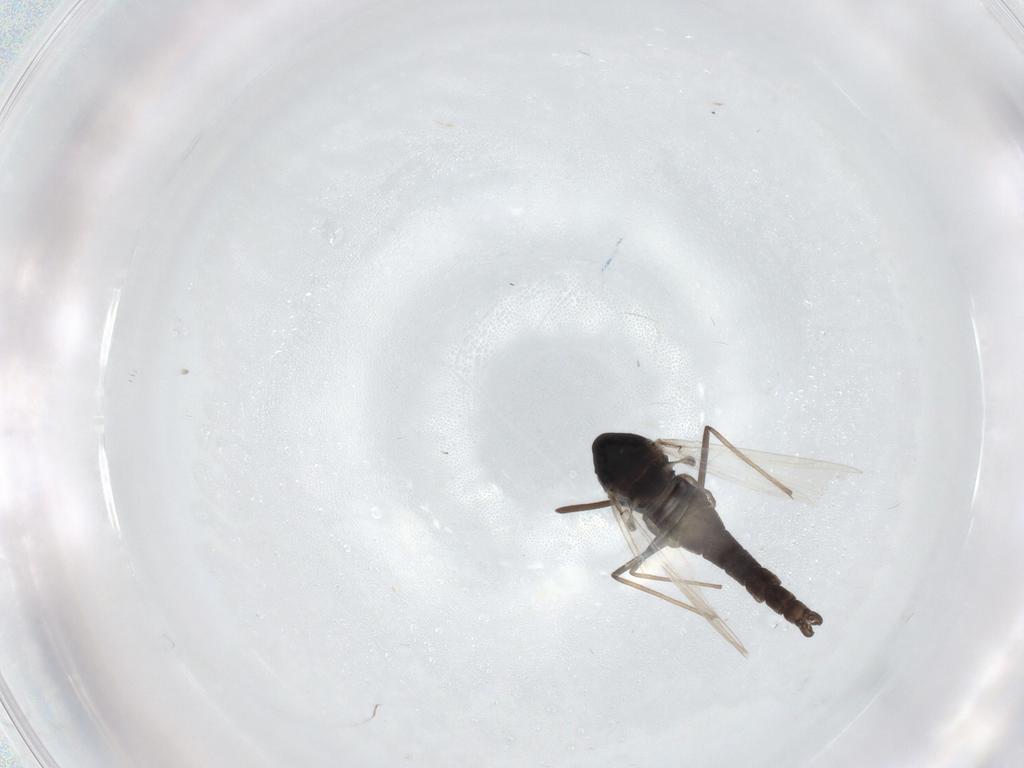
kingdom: Animalia
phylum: Arthropoda
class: Insecta
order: Diptera
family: Chironomidae
